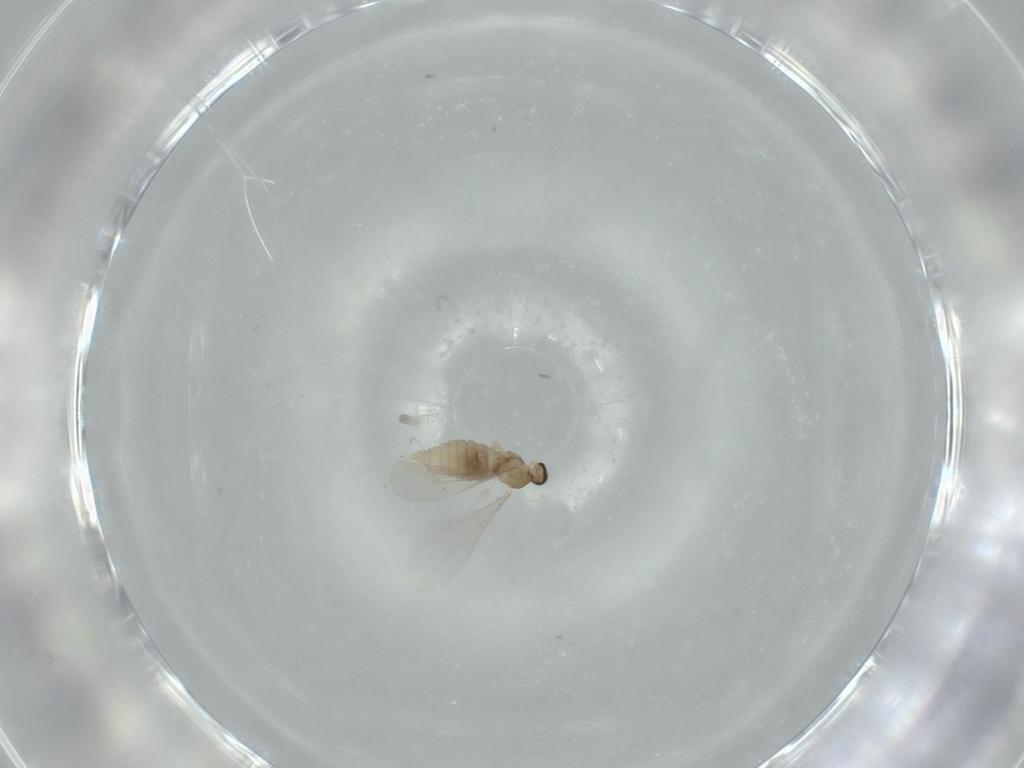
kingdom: Animalia
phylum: Arthropoda
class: Insecta
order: Diptera
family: Cecidomyiidae
